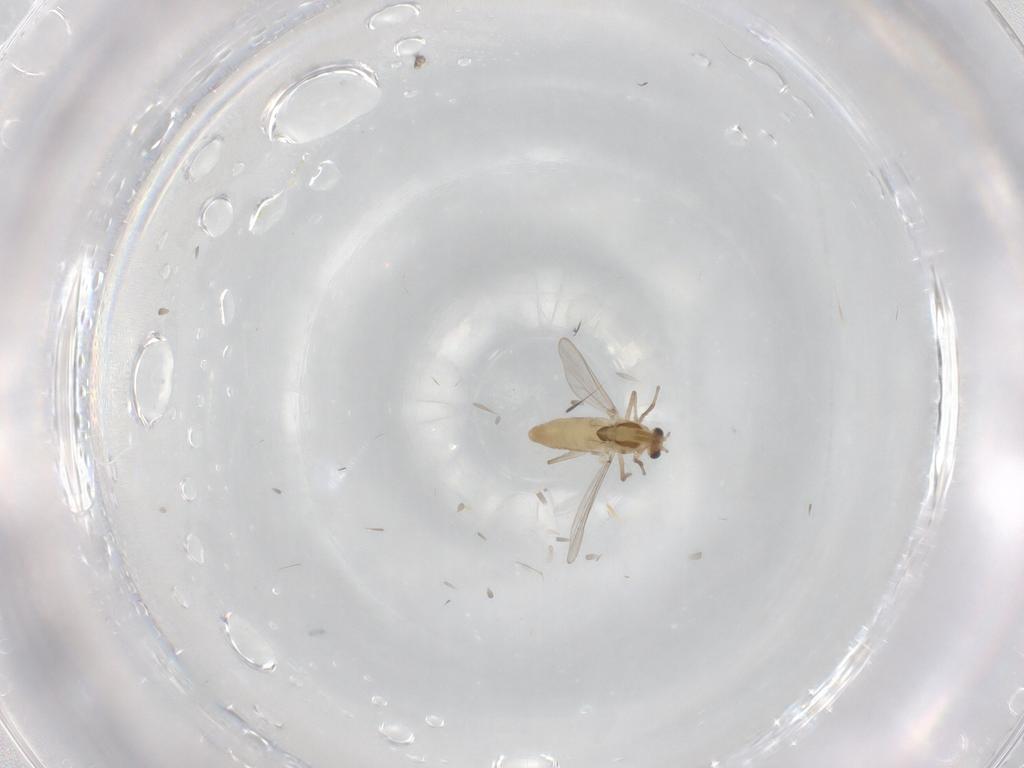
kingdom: Animalia
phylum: Arthropoda
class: Insecta
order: Diptera
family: Chironomidae
